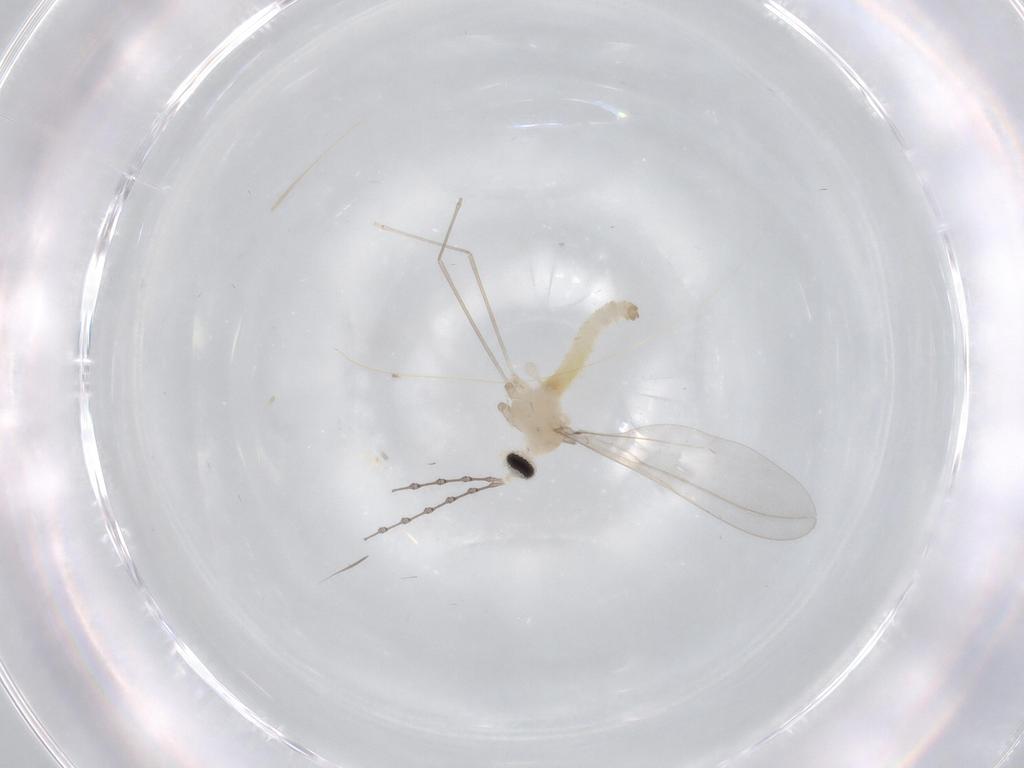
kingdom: Animalia
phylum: Arthropoda
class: Insecta
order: Diptera
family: Cecidomyiidae
